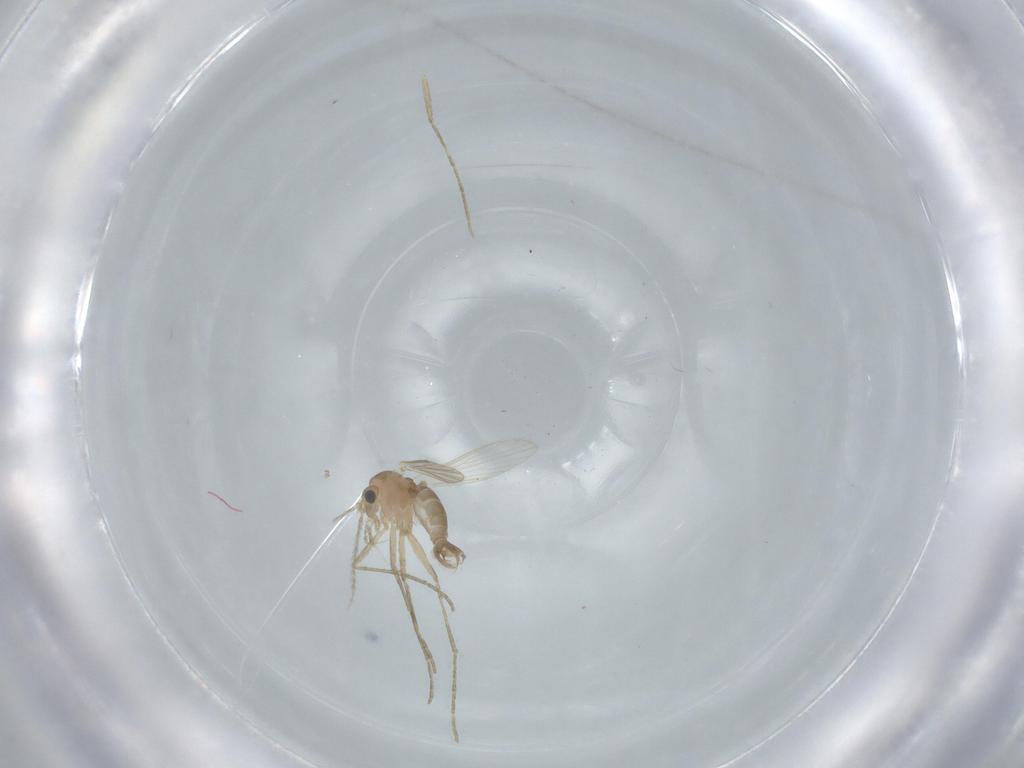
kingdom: Animalia
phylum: Arthropoda
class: Insecta
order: Diptera
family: Psychodidae
